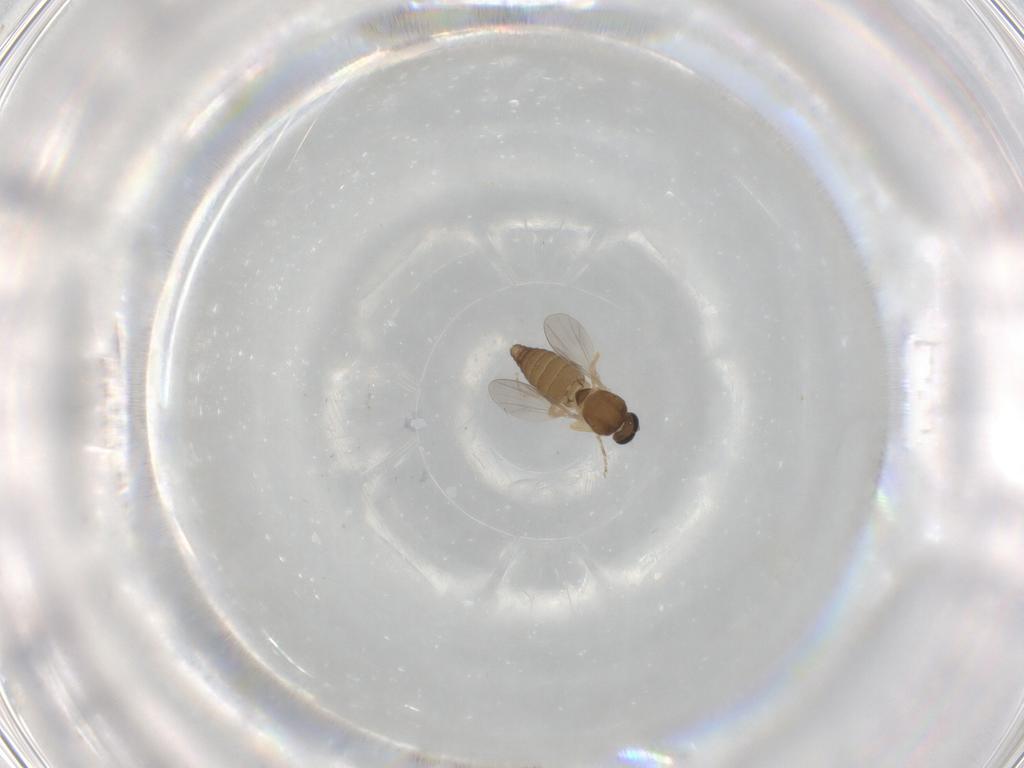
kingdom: Animalia
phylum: Arthropoda
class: Insecta
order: Diptera
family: Ceratopogonidae
